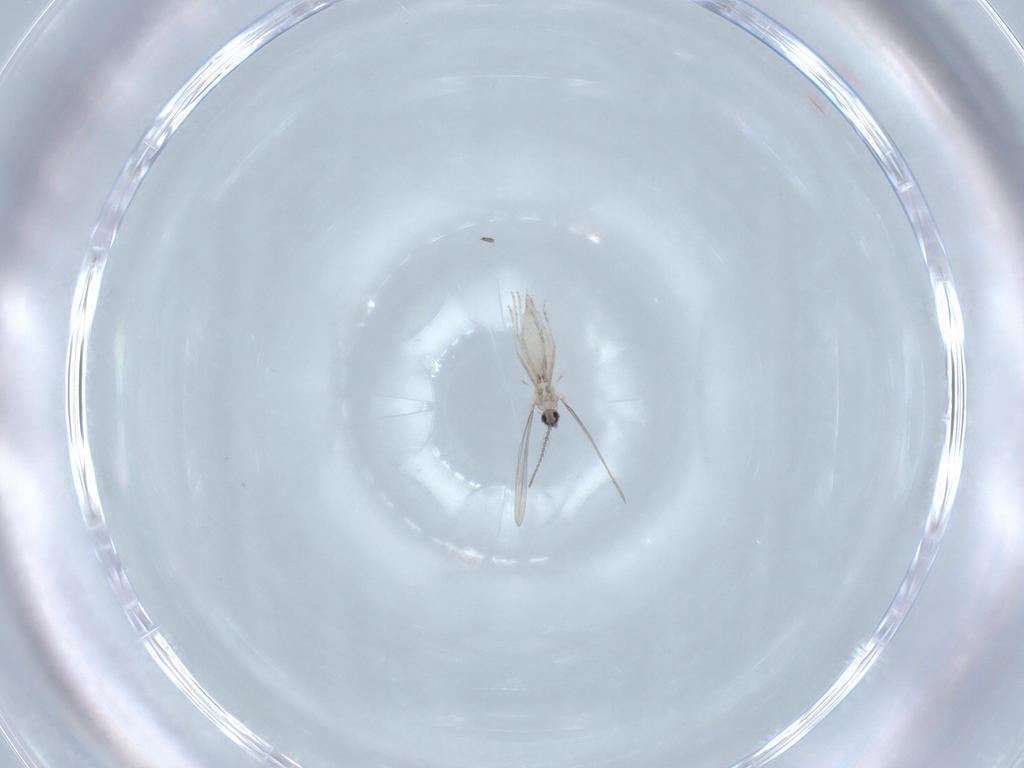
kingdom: Animalia
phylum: Arthropoda
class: Insecta
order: Diptera
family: Cecidomyiidae
